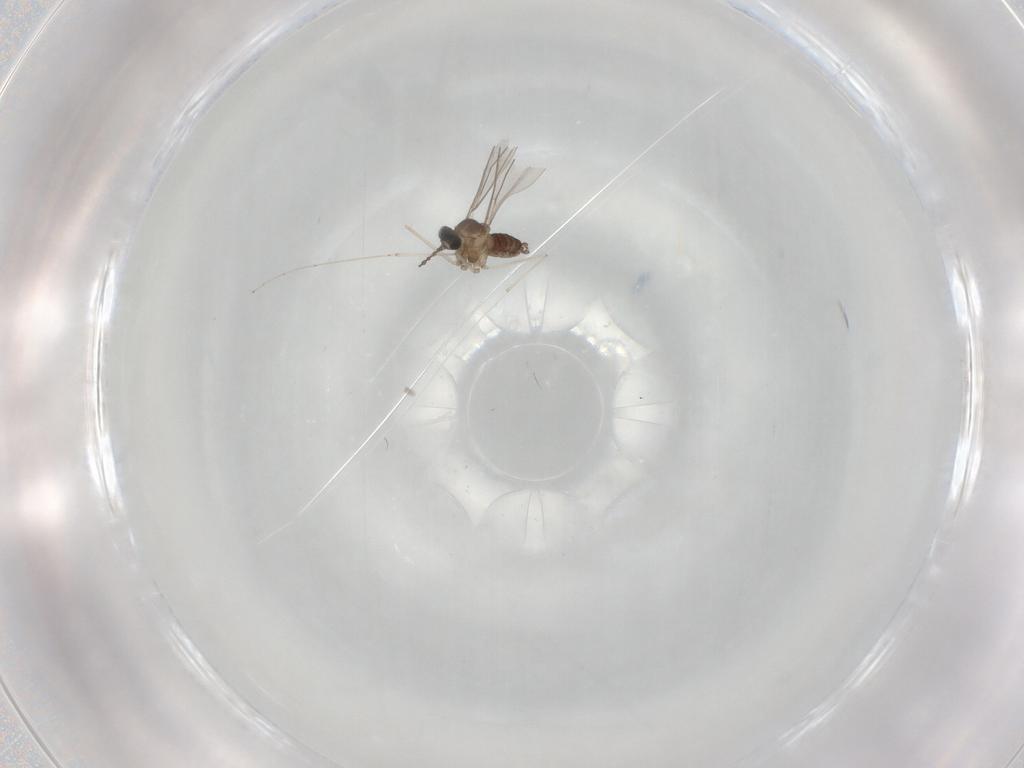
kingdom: Animalia
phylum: Arthropoda
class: Insecta
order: Diptera
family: Cecidomyiidae
